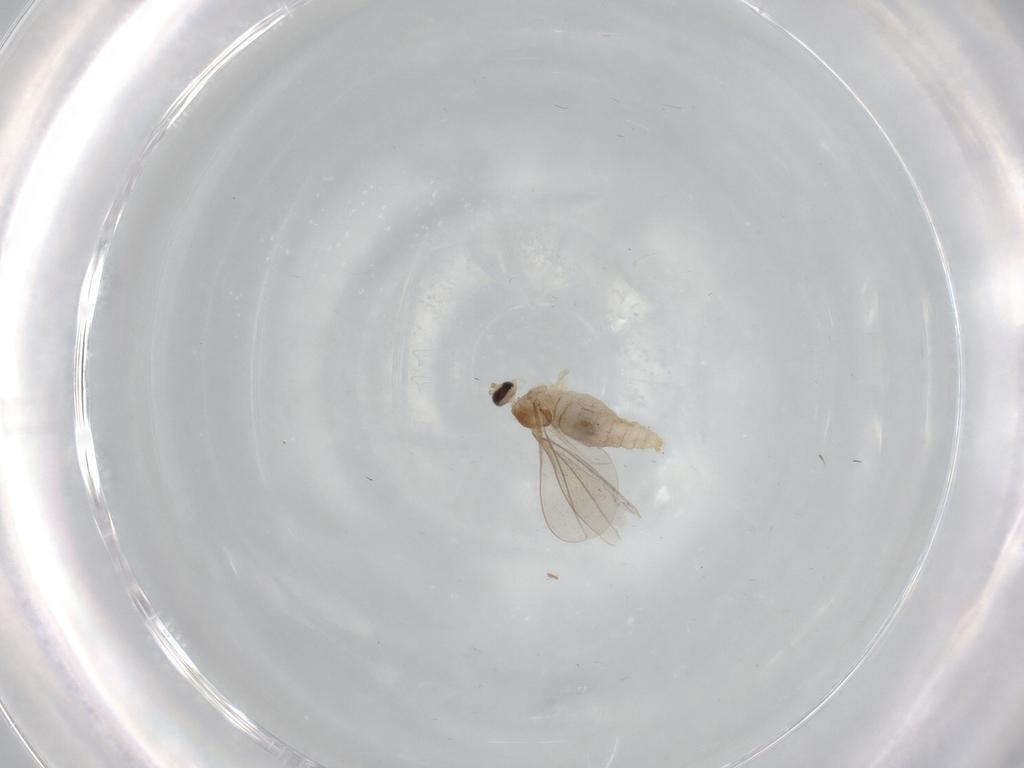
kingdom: Animalia
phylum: Arthropoda
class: Insecta
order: Diptera
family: Cecidomyiidae
